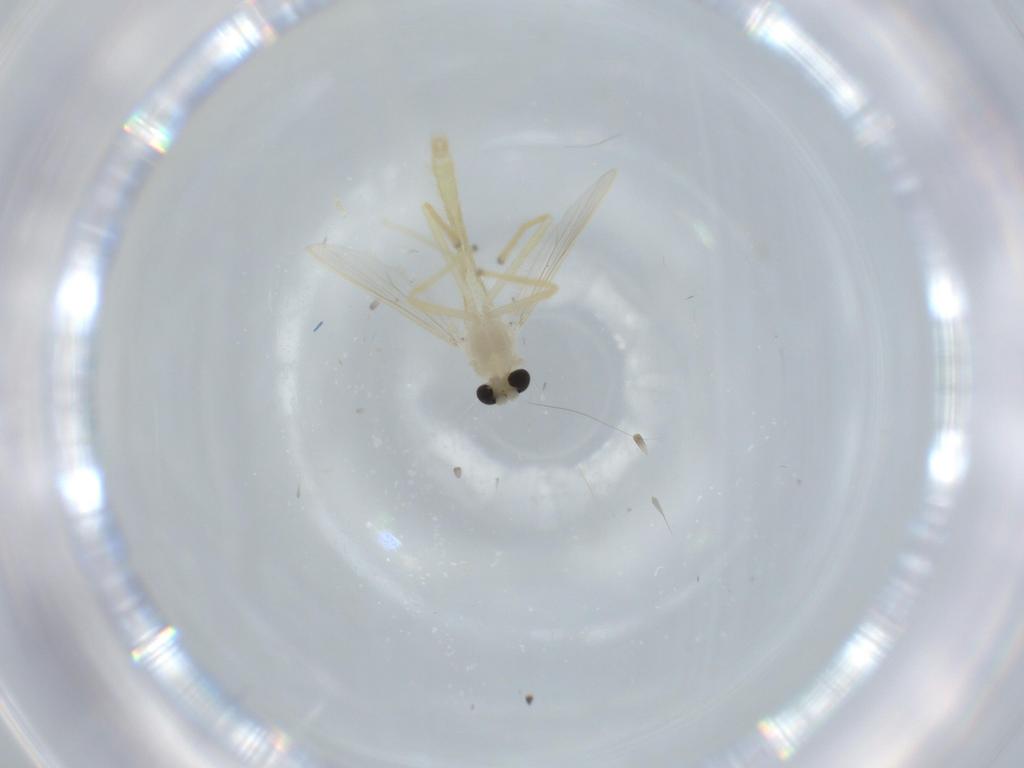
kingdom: Animalia
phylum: Arthropoda
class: Insecta
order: Diptera
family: Chironomidae
